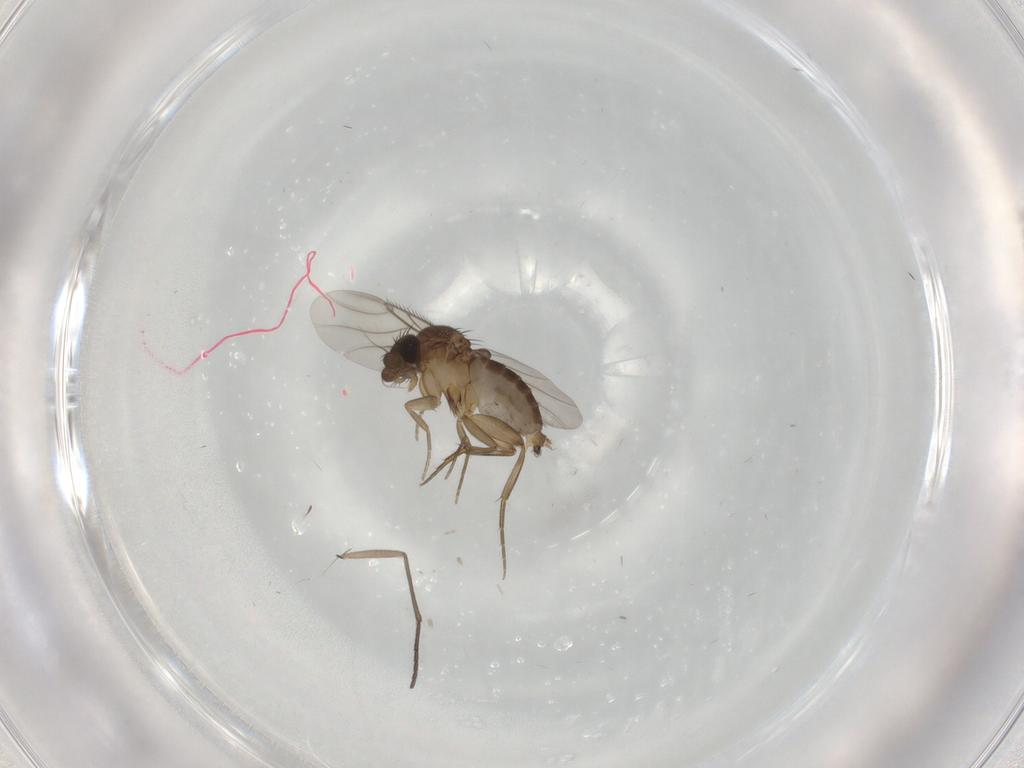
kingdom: Animalia
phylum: Arthropoda
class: Insecta
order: Diptera
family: Phoridae
